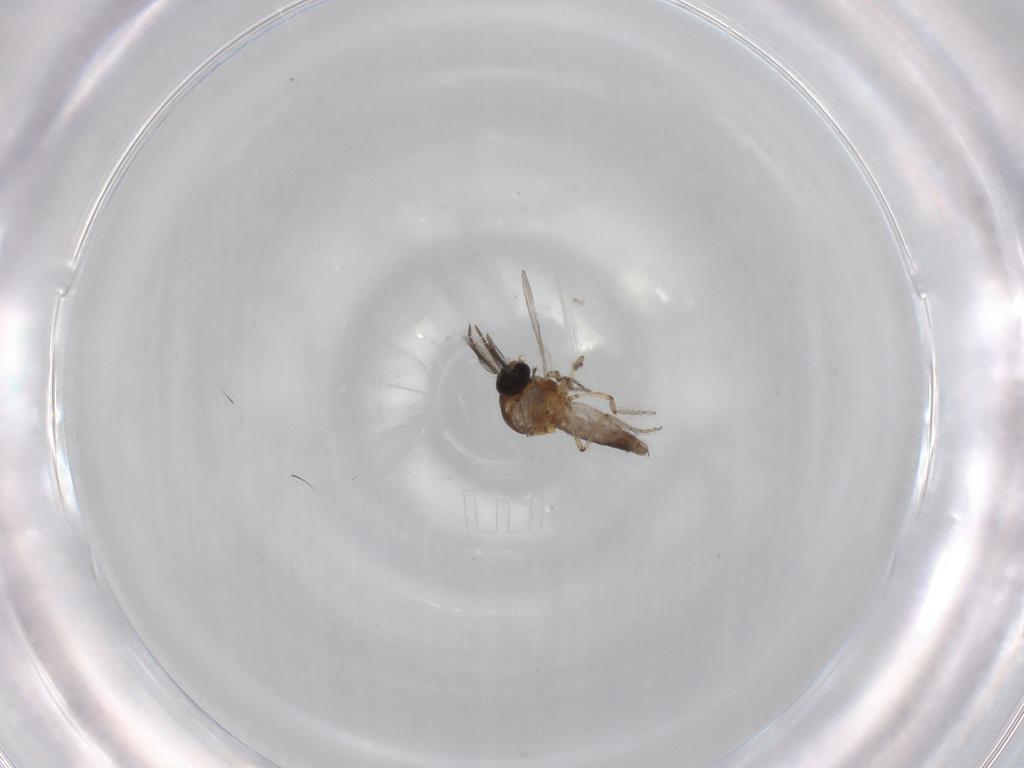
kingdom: Animalia
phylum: Arthropoda
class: Insecta
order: Diptera
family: Ceratopogonidae
